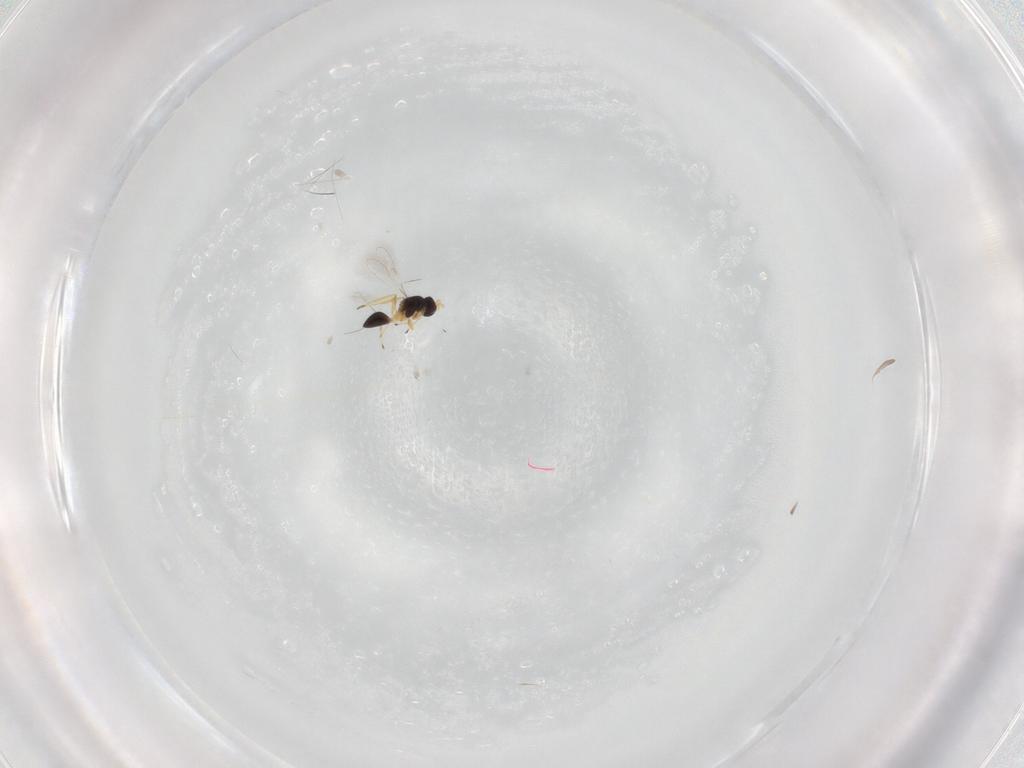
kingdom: Animalia
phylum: Arthropoda
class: Insecta
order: Hymenoptera
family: Mymaridae
